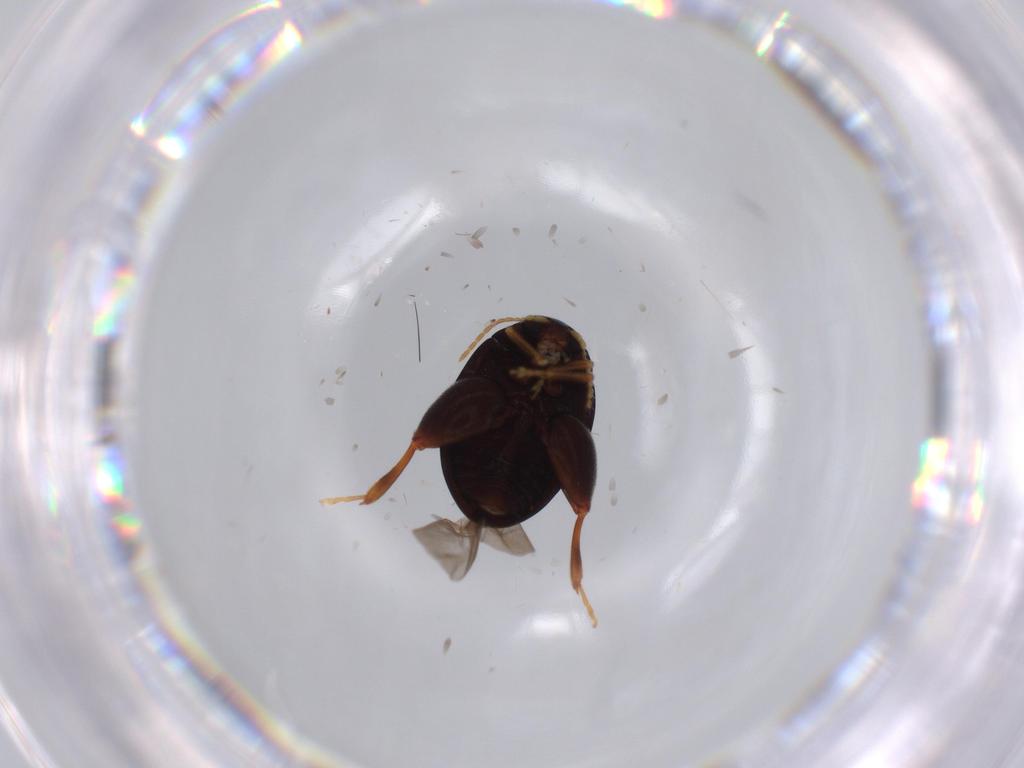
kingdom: Animalia
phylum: Arthropoda
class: Insecta
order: Coleoptera
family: Chrysomelidae
